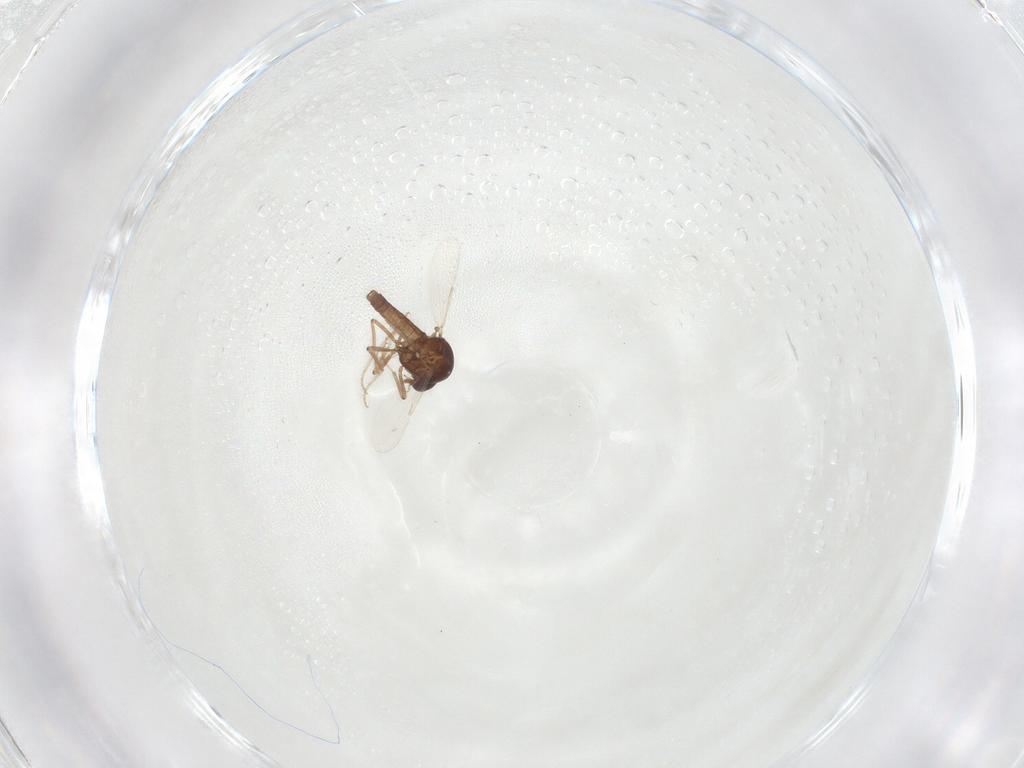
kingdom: Animalia
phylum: Arthropoda
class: Insecta
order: Diptera
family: Ceratopogonidae
